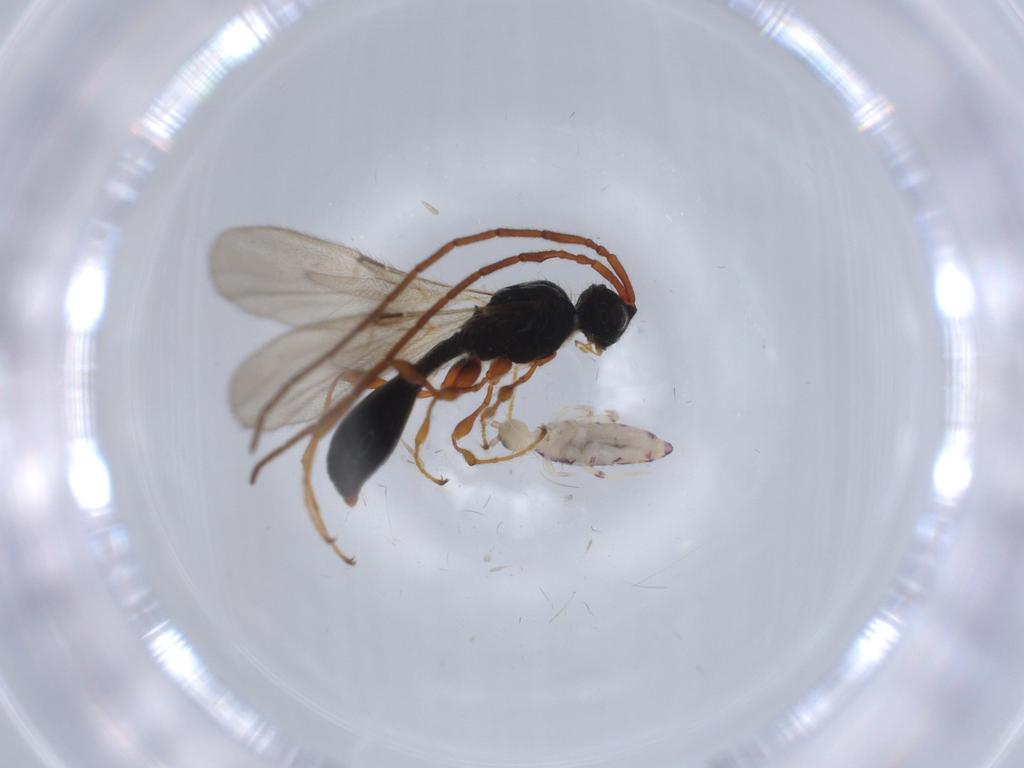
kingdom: Animalia
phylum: Arthropoda
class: Collembola
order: Entomobryomorpha
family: Entomobryidae
